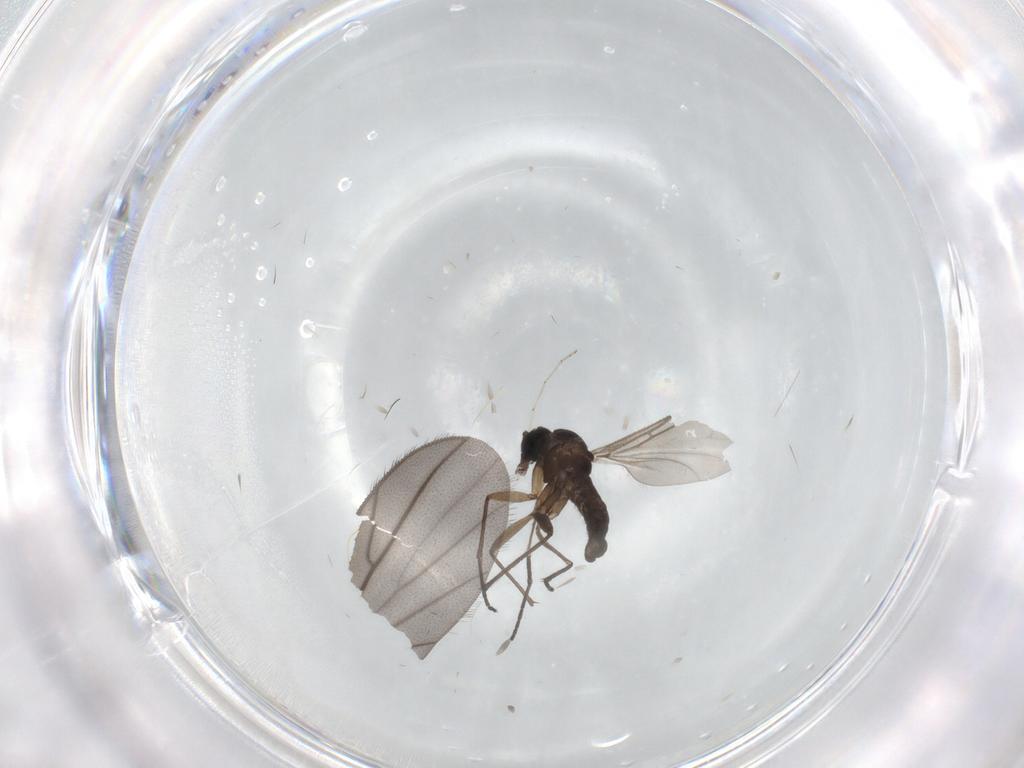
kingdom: Animalia
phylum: Arthropoda
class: Insecta
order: Diptera
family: Ditomyiidae
